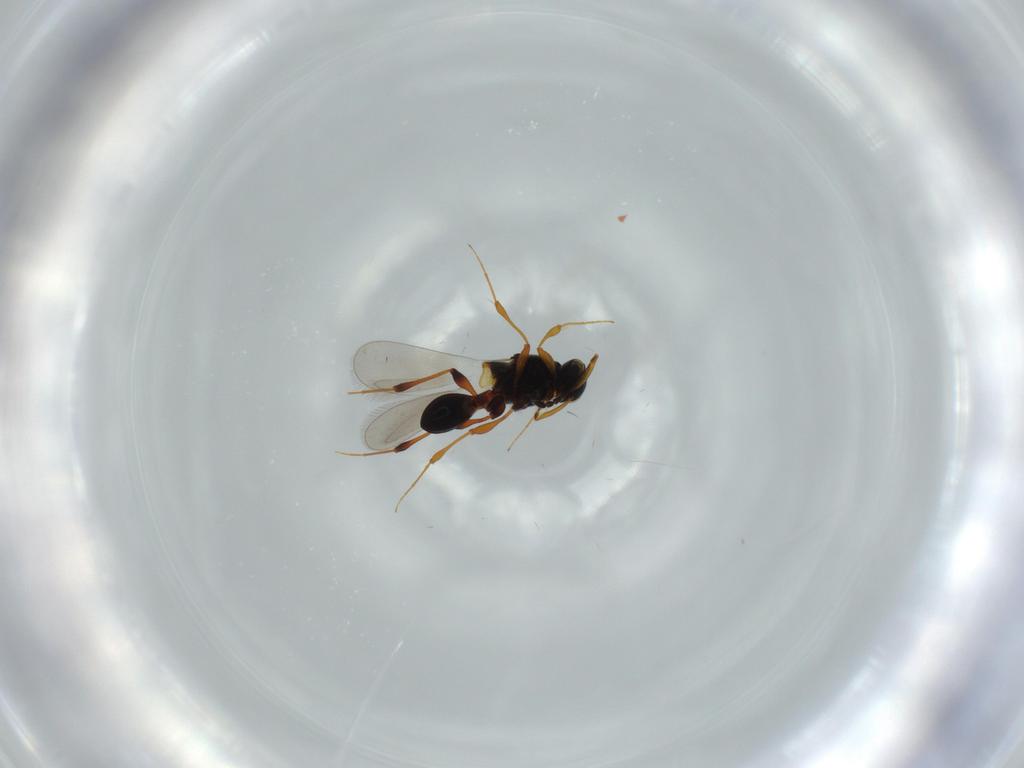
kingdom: Animalia
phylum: Arthropoda
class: Insecta
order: Hymenoptera
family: Platygastridae
